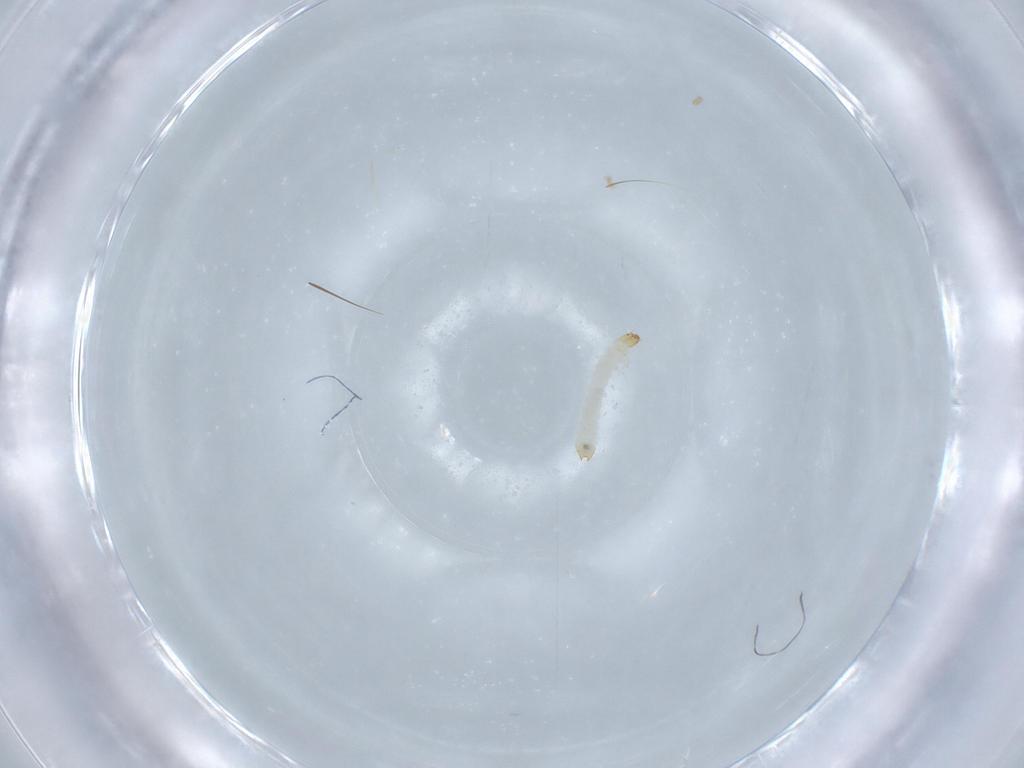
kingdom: Animalia
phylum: Arthropoda
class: Insecta
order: Coleoptera
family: Smicripidae
